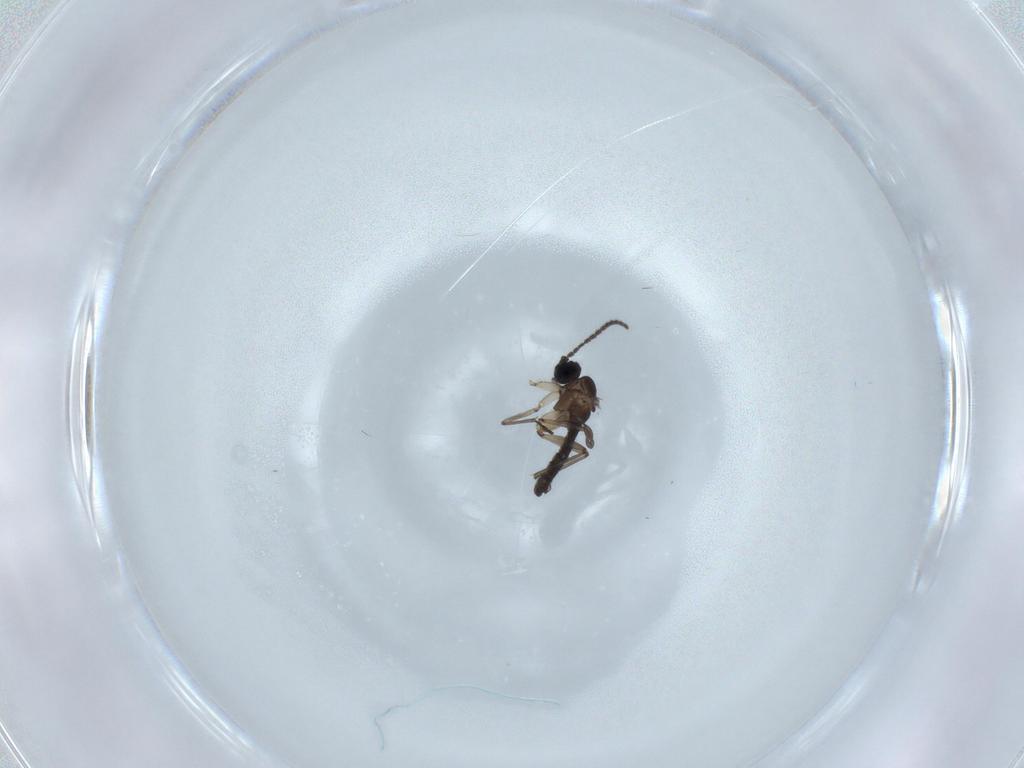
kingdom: Animalia
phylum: Arthropoda
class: Insecta
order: Diptera
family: Sciaridae
